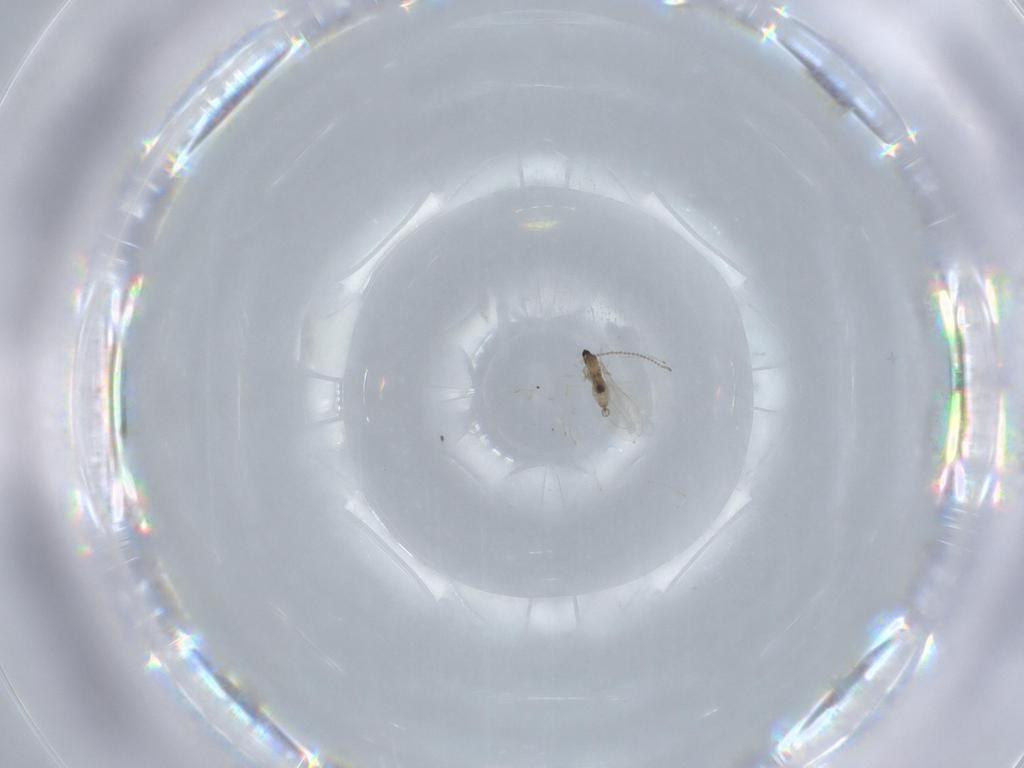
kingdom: Animalia
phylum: Arthropoda
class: Insecta
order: Diptera
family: Cecidomyiidae
